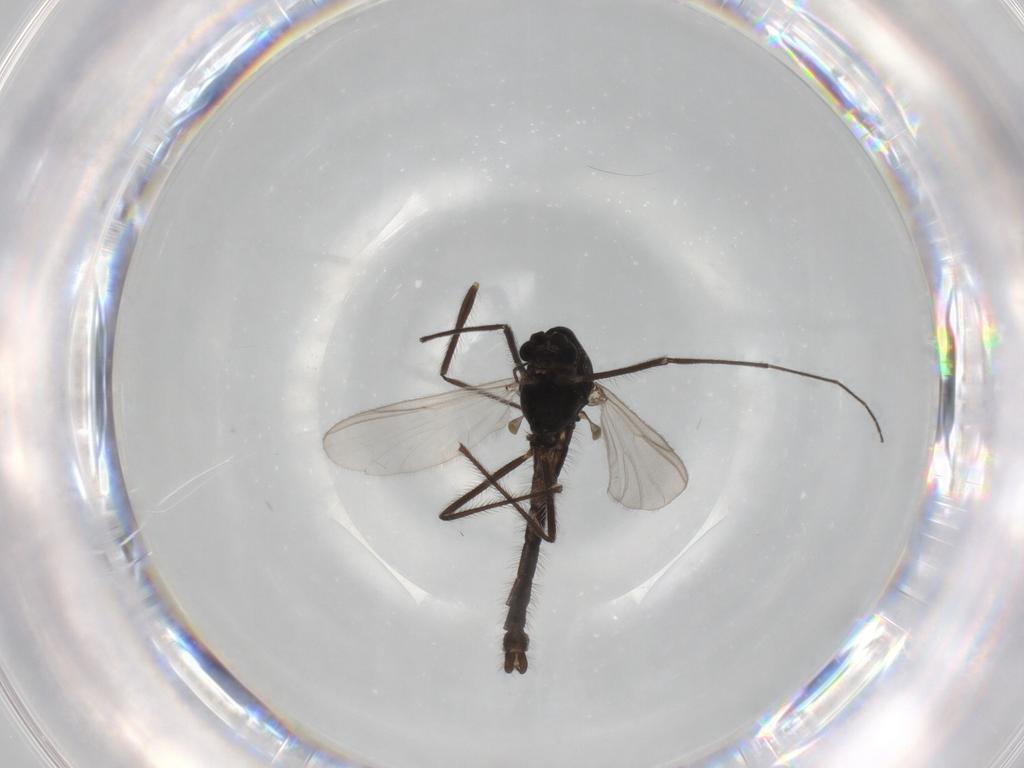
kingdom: Animalia
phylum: Arthropoda
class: Insecta
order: Diptera
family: Chironomidae
